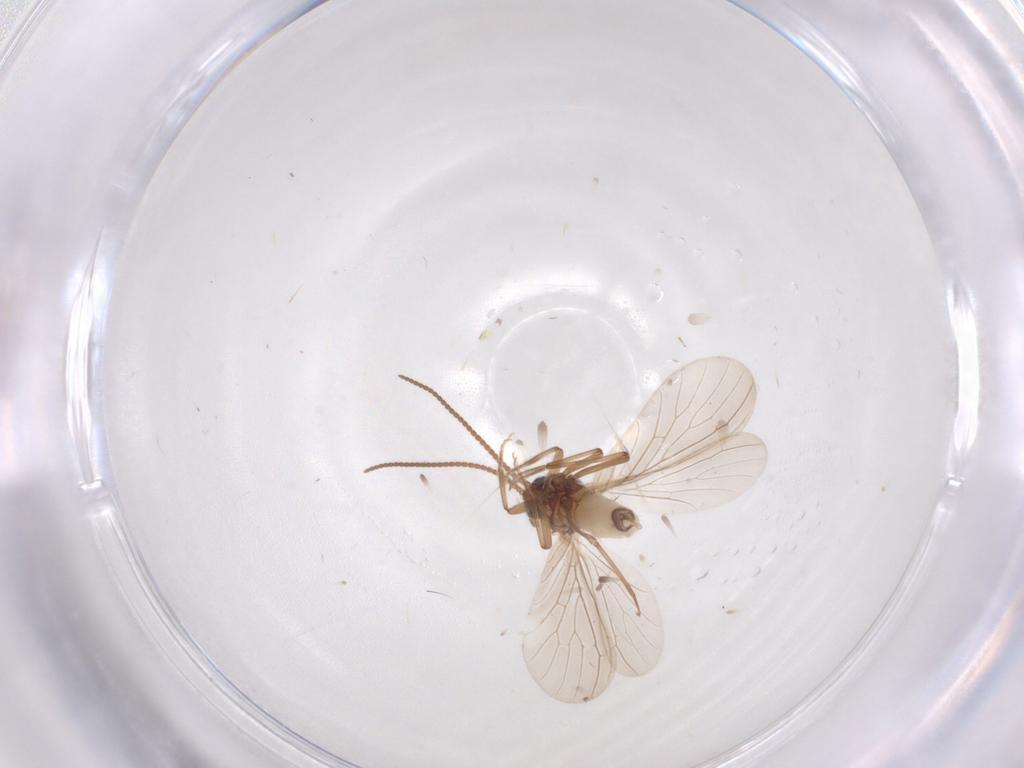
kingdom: Animalia
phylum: Arthropoda
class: Insecta
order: Neuroptera
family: Coniopterygidae
